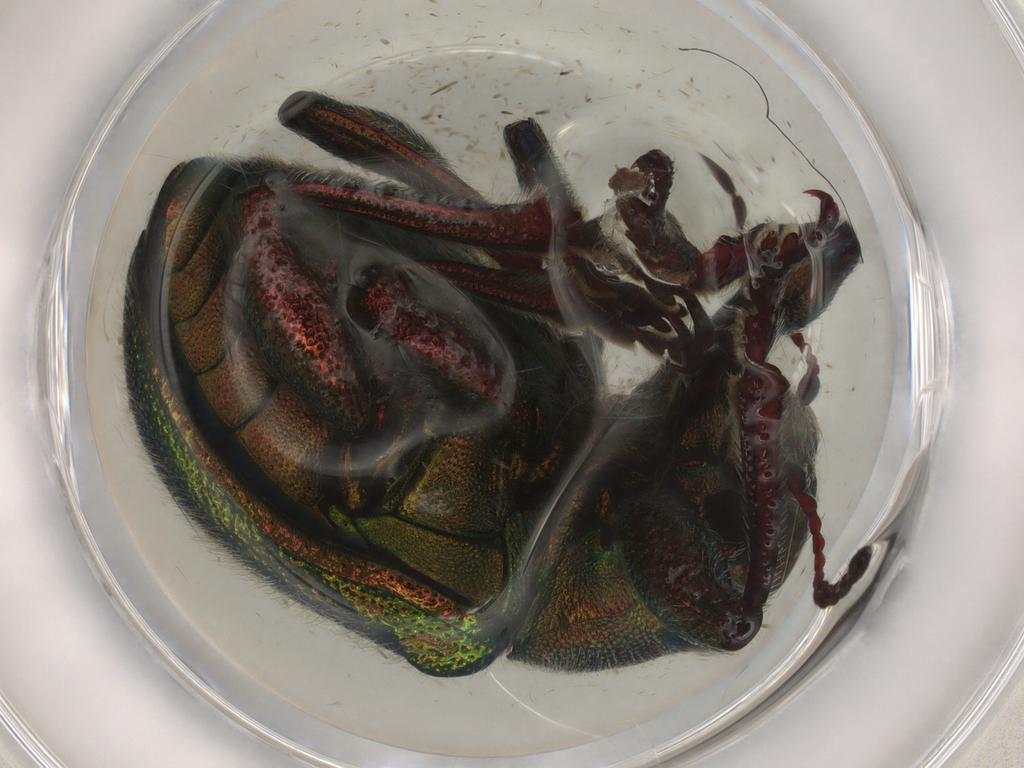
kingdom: Animalia
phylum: Arthropoda
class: Insecta
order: Coleoptera
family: Chrysomelidae
